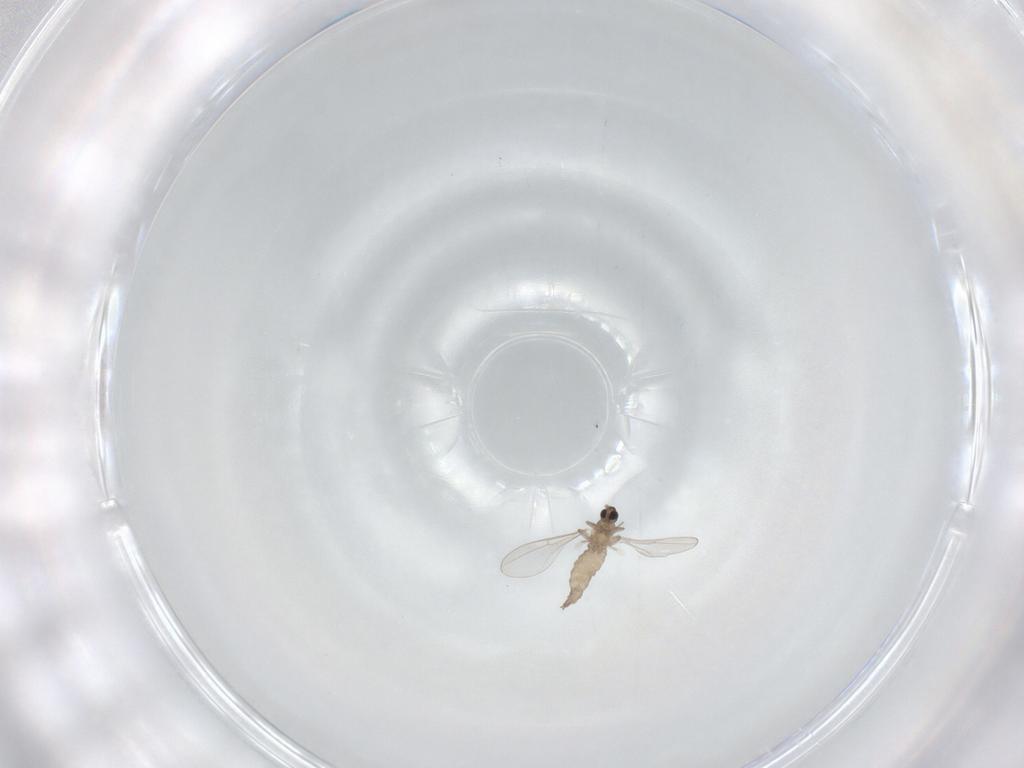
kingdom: Animalia
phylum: Arthropoda
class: Insecta
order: Diptera
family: Cecidomyiidae
